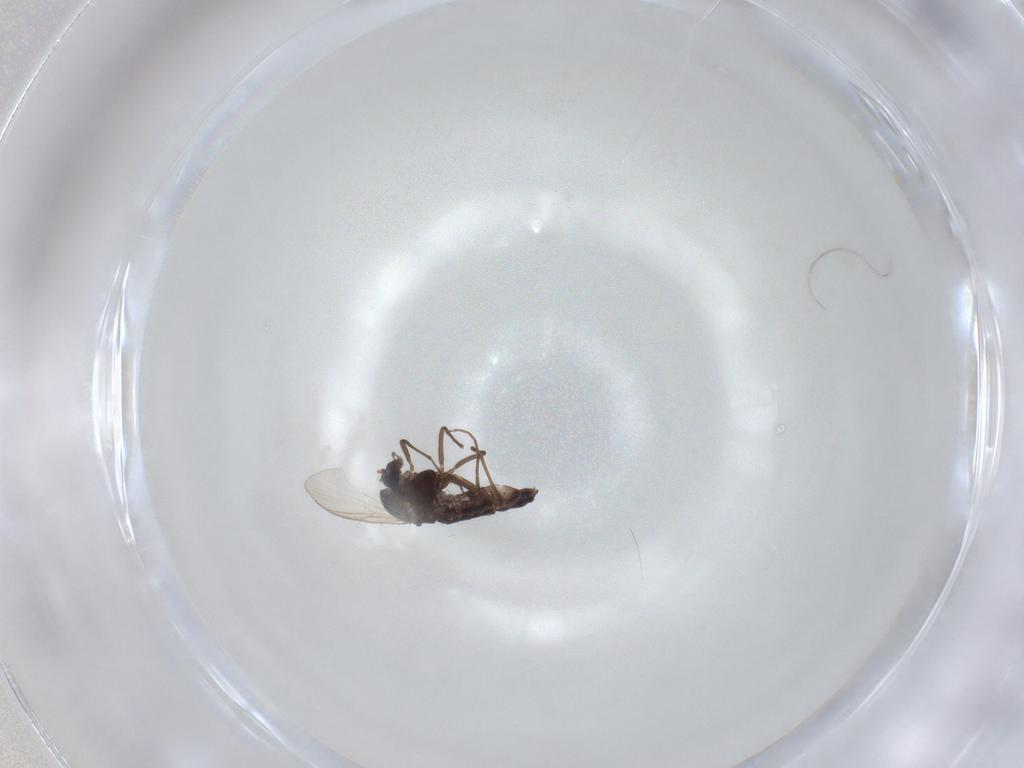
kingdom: Animalia
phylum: Arthropoda
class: Insecta
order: Diptera
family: Chironomidae
